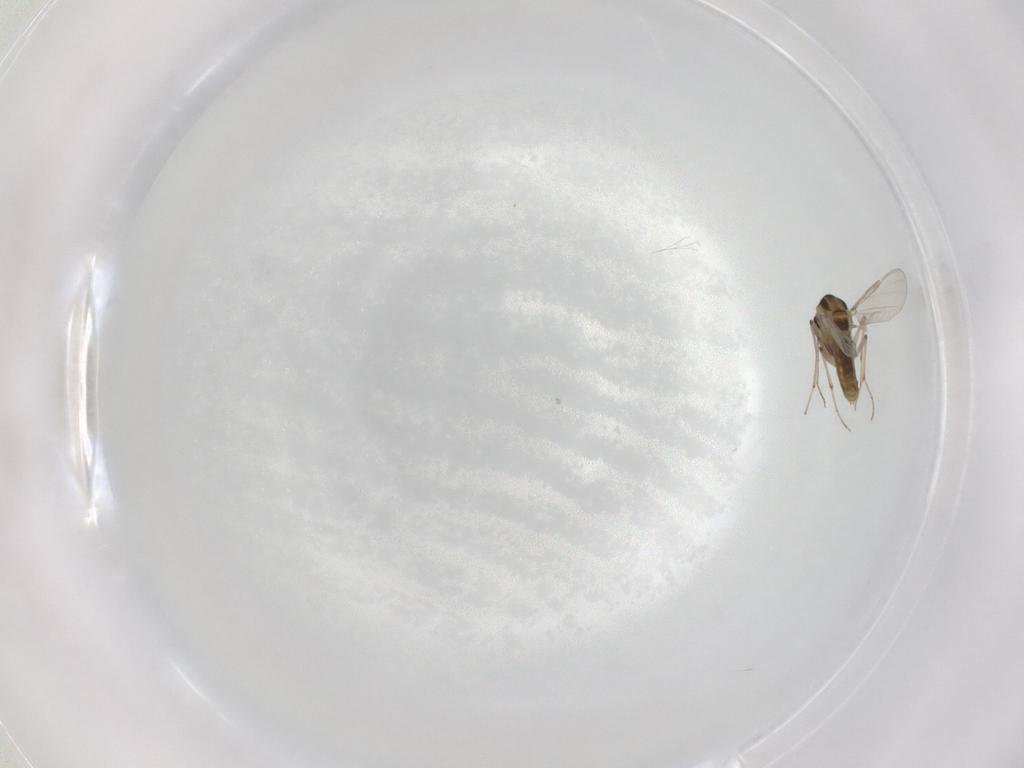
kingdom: Animalia
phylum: Arthropoda
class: Insecta
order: Diptera
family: Chironomidae
